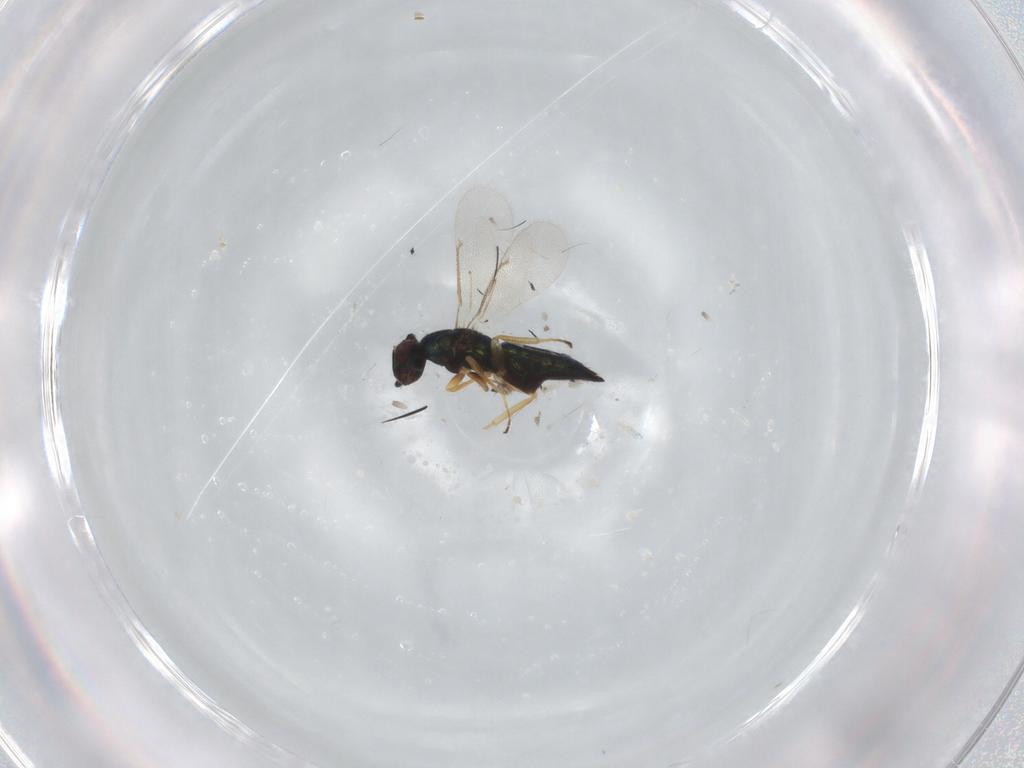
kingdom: Animalia
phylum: Arthropoda
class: Insecta
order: Hymenoptera
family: Eulophidae
